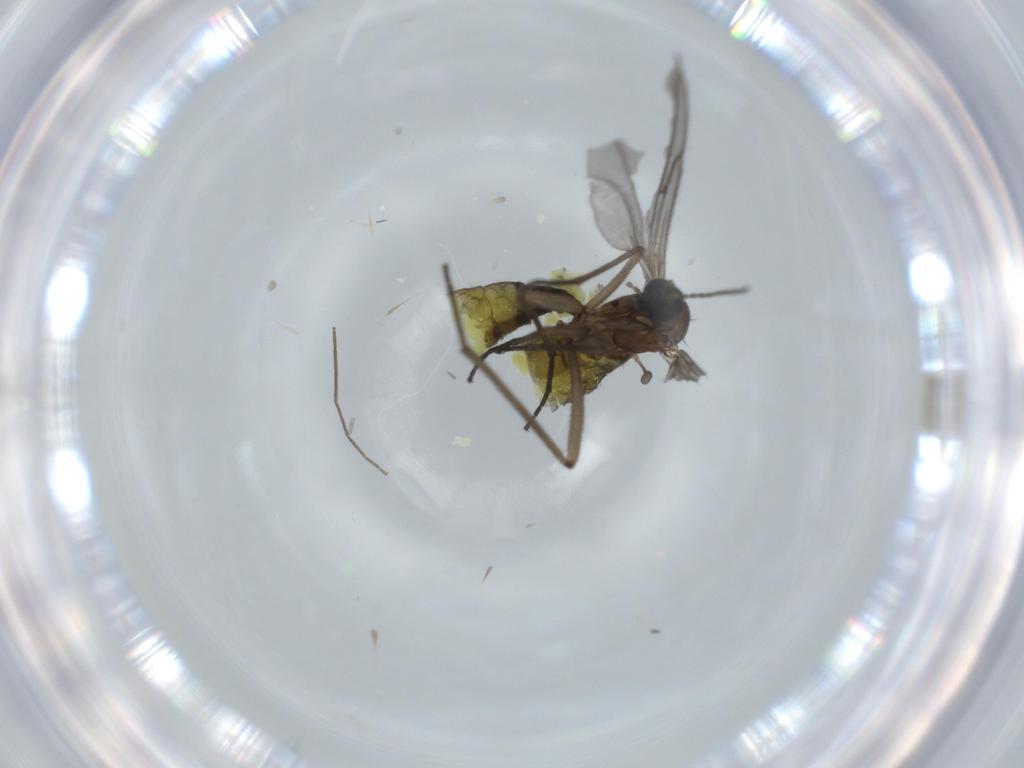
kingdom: Animalia
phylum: Arthropoda
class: Insecta
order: Diptera
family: Sciaridae
